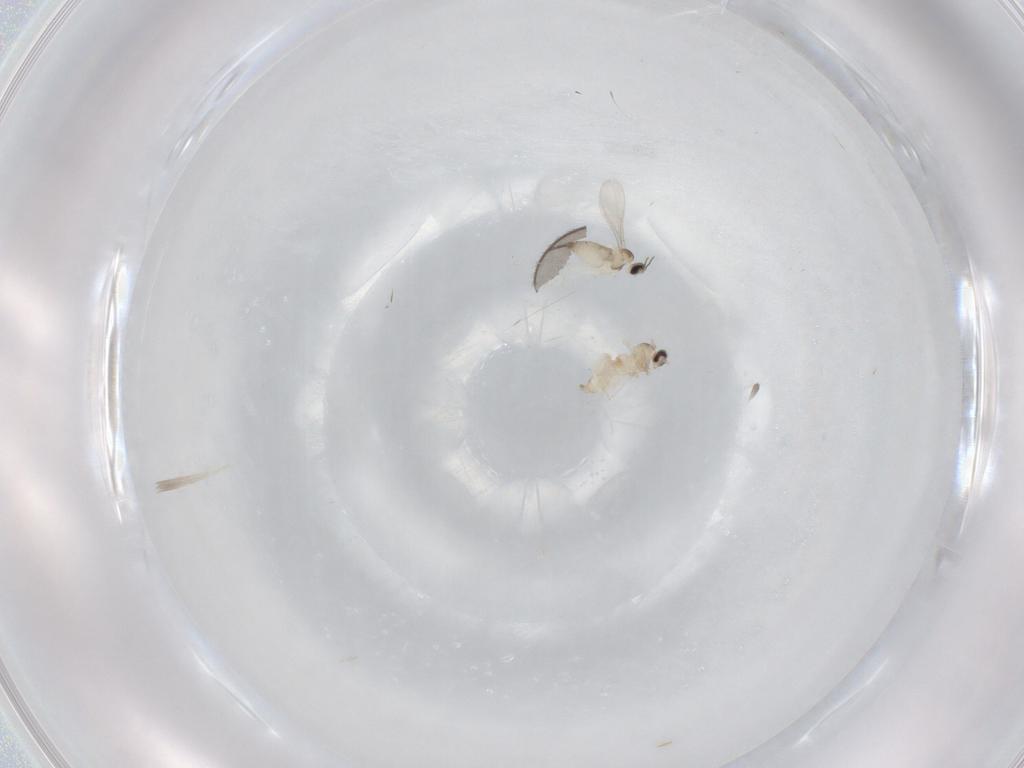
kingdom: Animalia
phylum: Arthropoda
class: Insecta
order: Diptera
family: Cecidomyiidae
